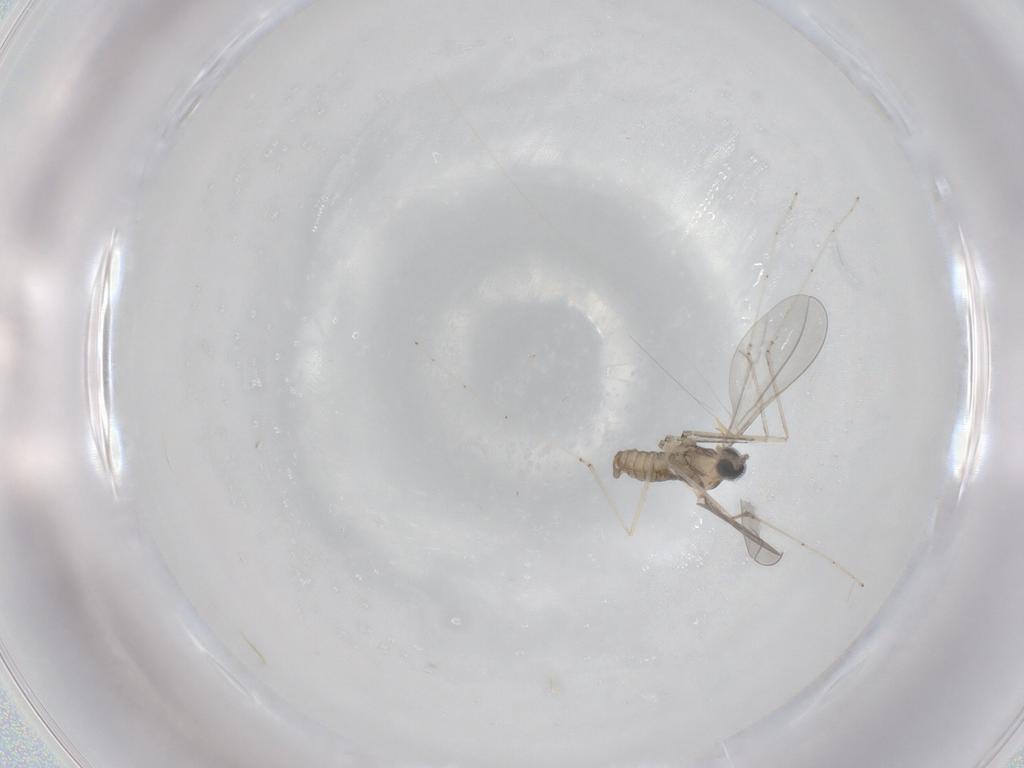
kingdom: Animalia
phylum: Arthropoda
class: Insecta
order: Diptera
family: Cecidomyiidae
